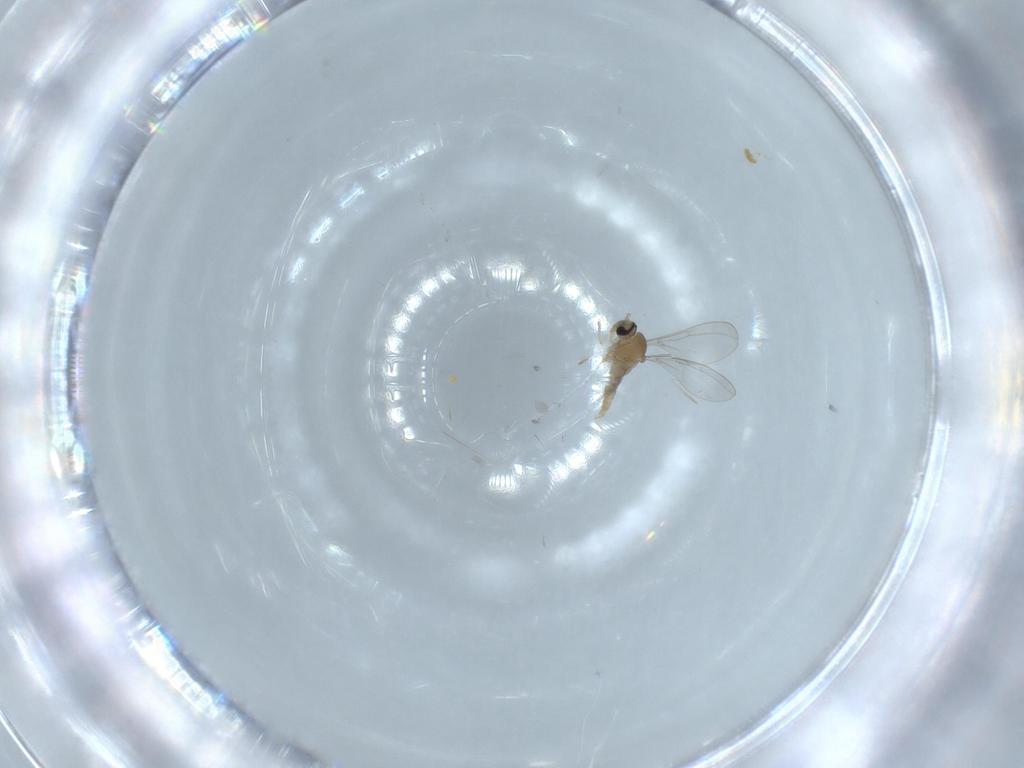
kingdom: Animalia
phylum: Arthropoda
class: Insecta
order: Diptera
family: Cecidomyiidae
